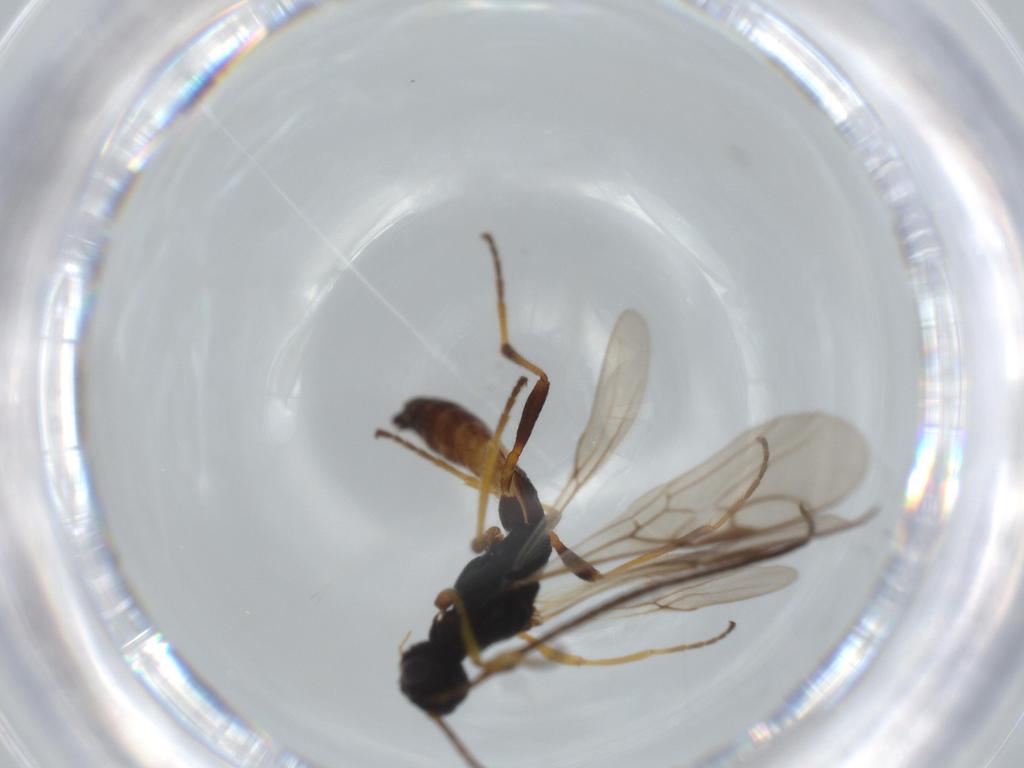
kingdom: Animalia
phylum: Arthropoda
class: Insecta
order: Hymenoptera
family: Braconidae
